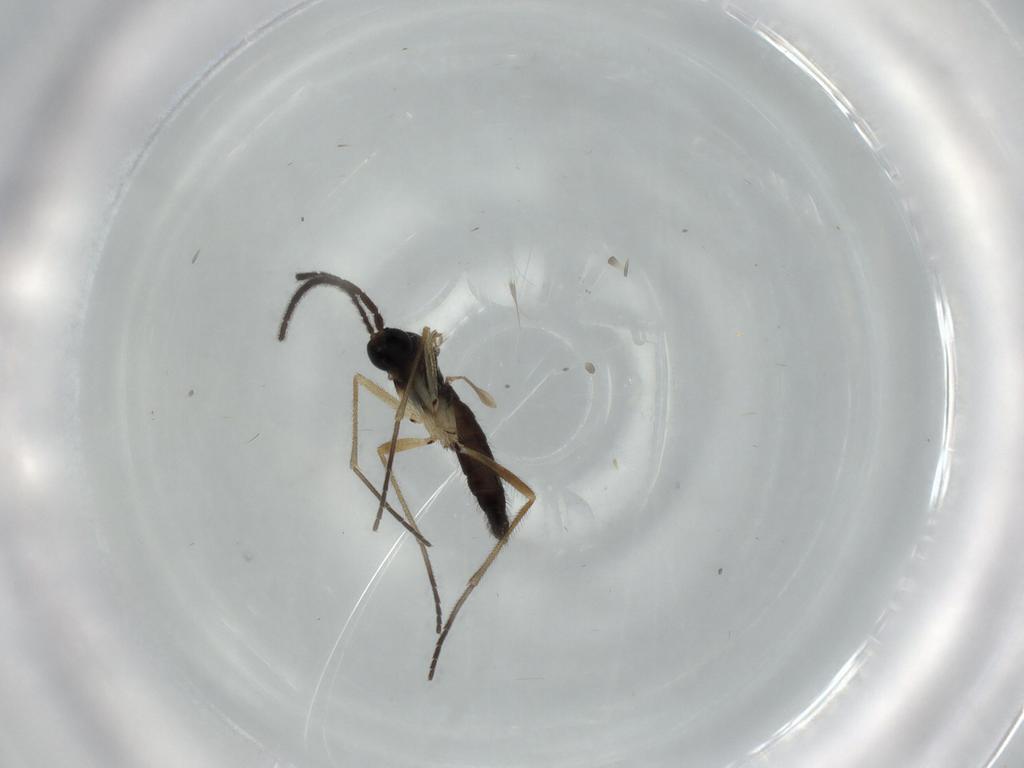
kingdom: Animalia
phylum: Arthropoda
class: Insecta
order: Diptera
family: Sciaridae
